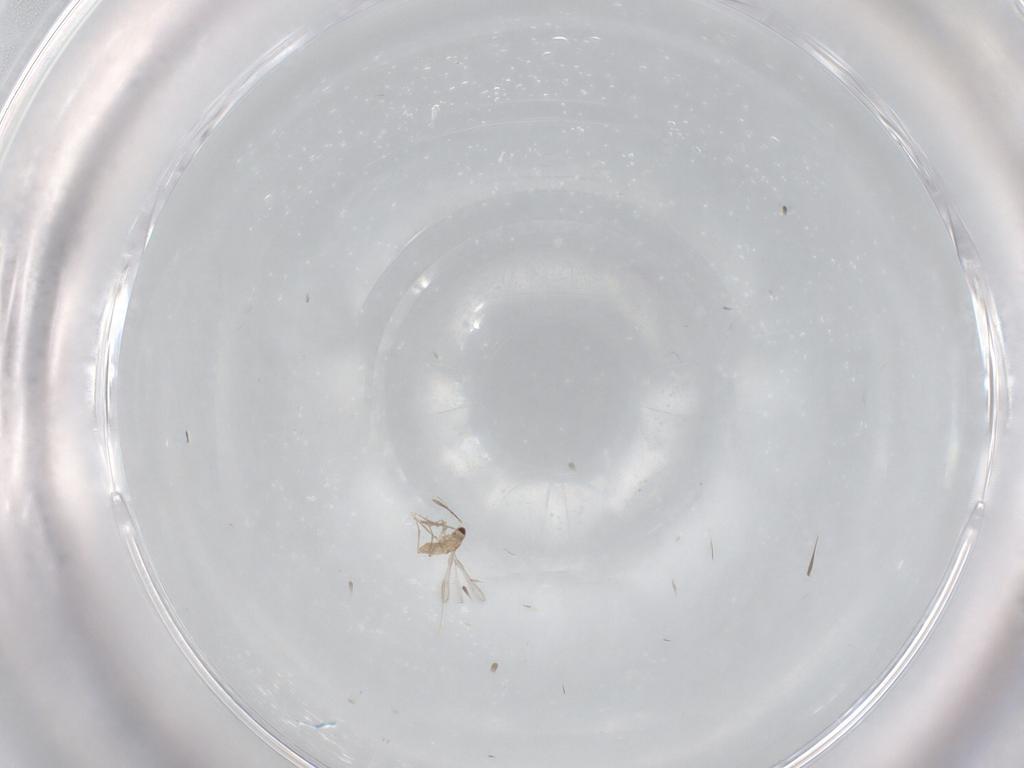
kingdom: Animalia
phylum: Arthropoda
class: Insecta
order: Hymenoptera
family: Mymaridae
